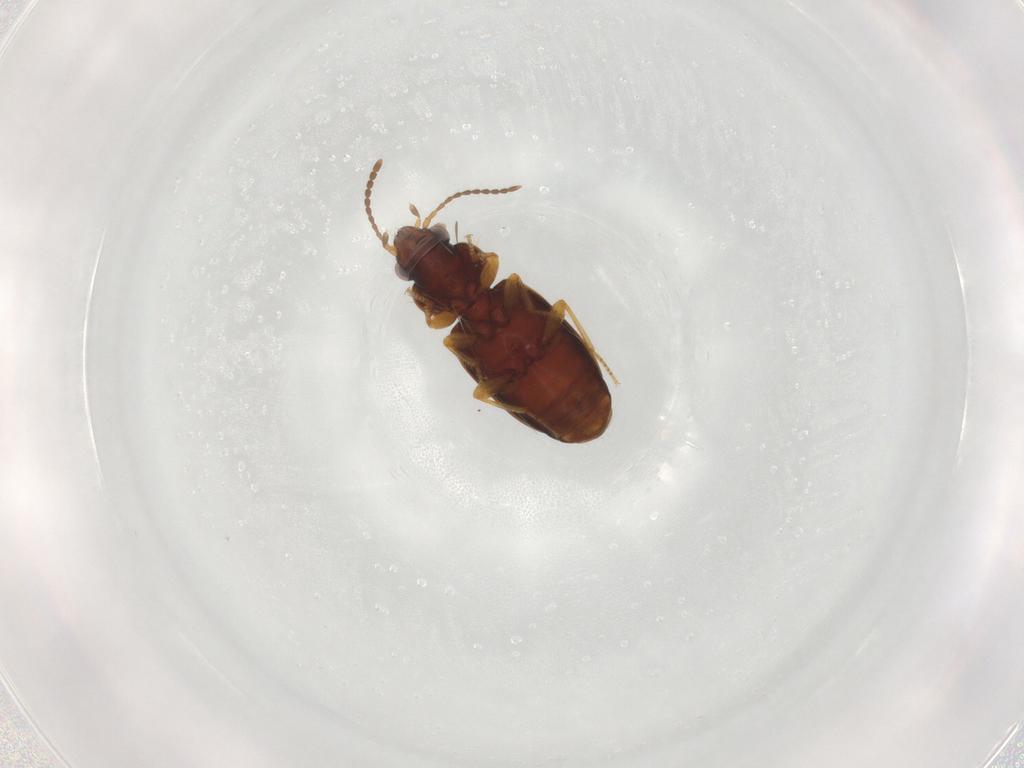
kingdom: Animalia
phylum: Arthropoda
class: Insecta
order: Coleoptera
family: Carabidae
